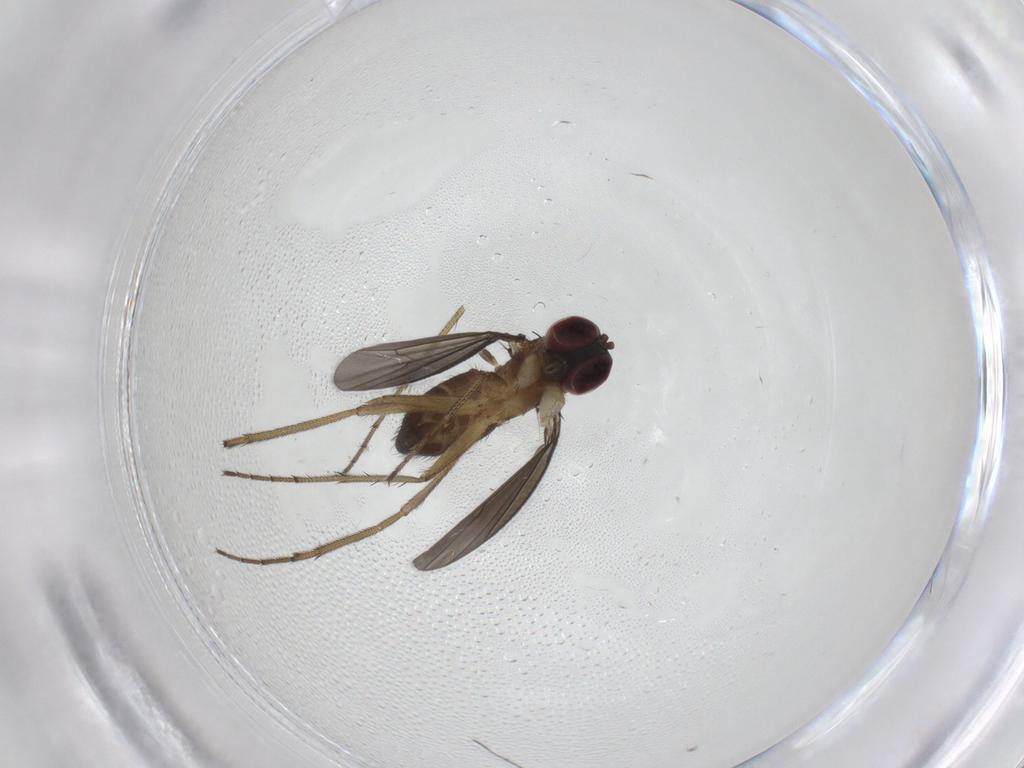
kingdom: Animalia
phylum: Arthropoda
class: Insecta
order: Diptera
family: Dolichopodidae
